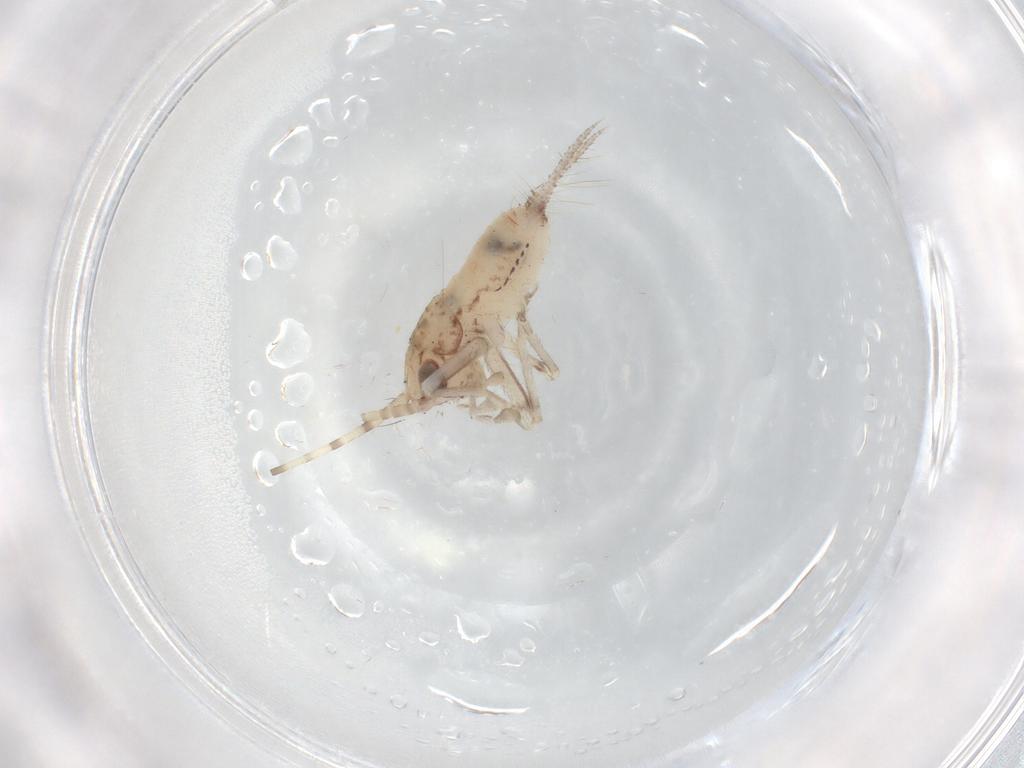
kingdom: Animalia
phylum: Arthropoda
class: Insecta
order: Orthoptera
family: Trigonidiidae
